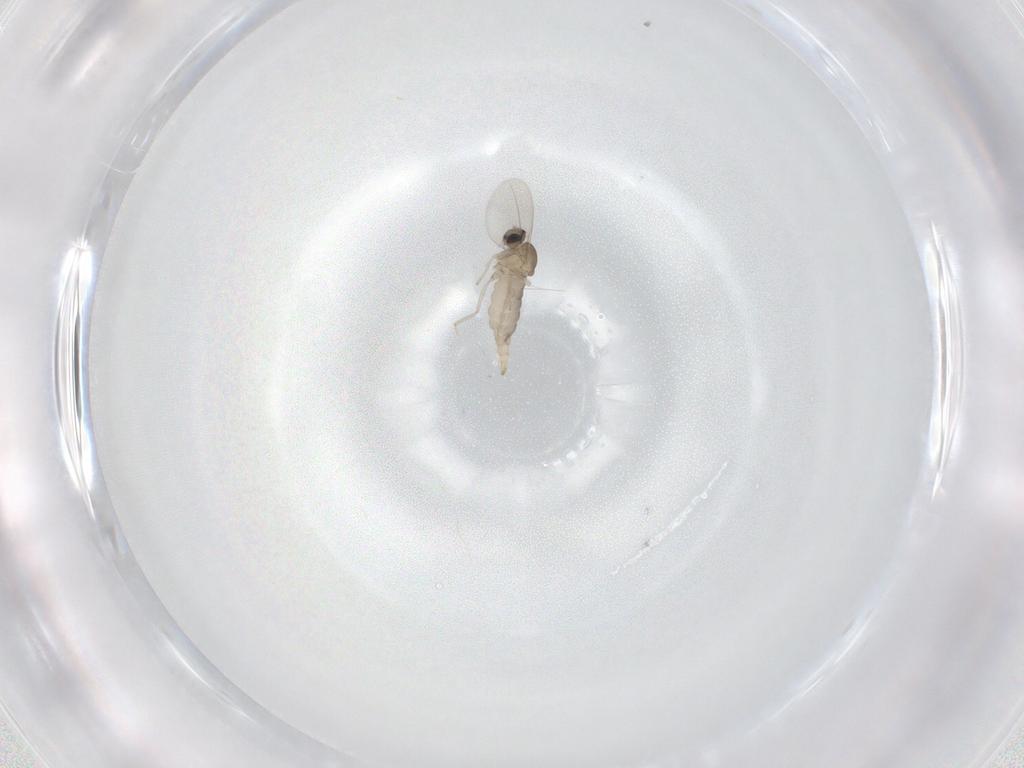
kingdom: Animalia
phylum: Arthropoda
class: Insecta
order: Diptera
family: Cecidomyiidae
